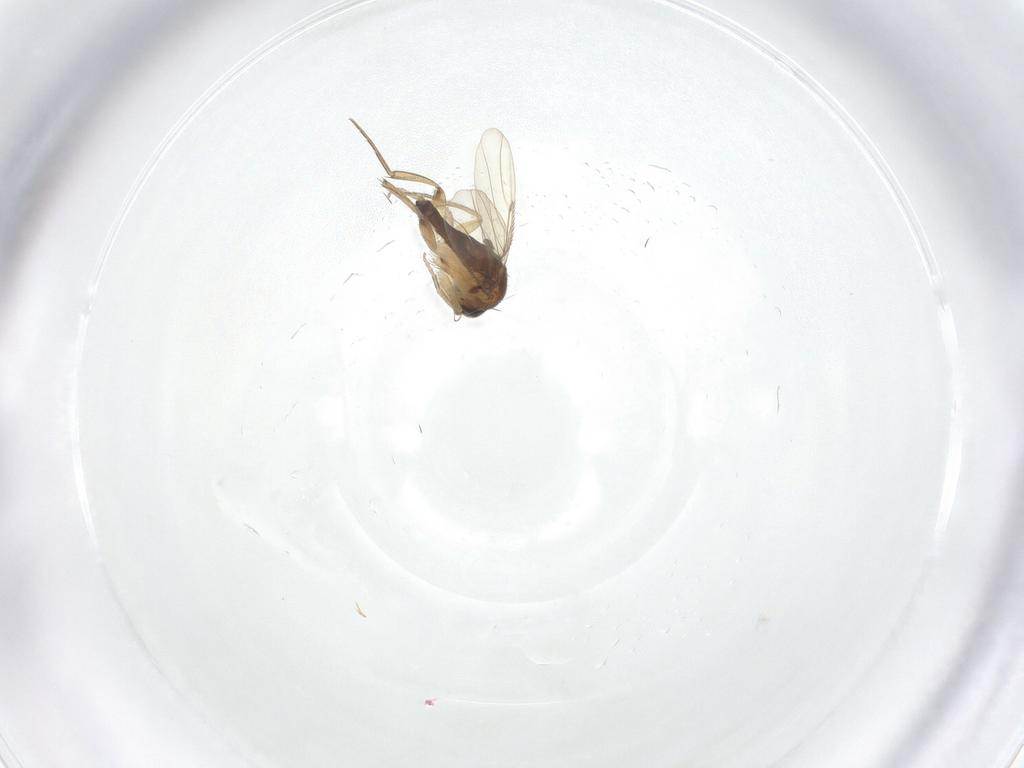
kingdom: Animalia
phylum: Arthropoda
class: Insecta
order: Diptera
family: Phoridae
